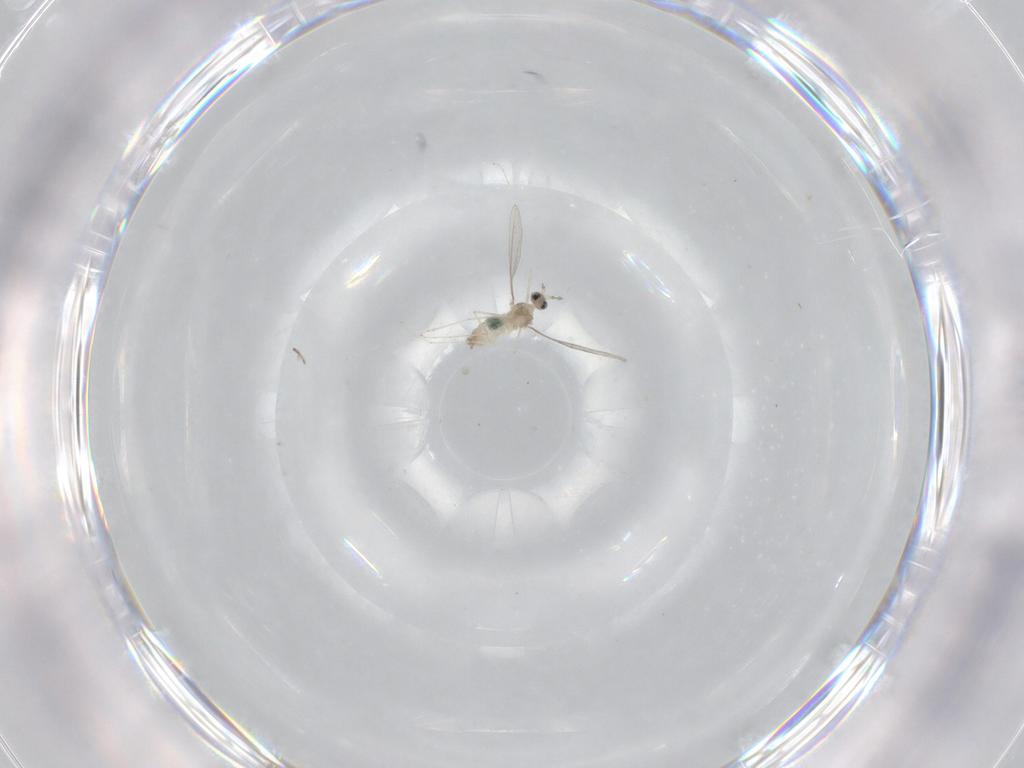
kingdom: Animalia
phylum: Arthropoda
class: Insecta
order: Diptera
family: Cecidomyiidae
